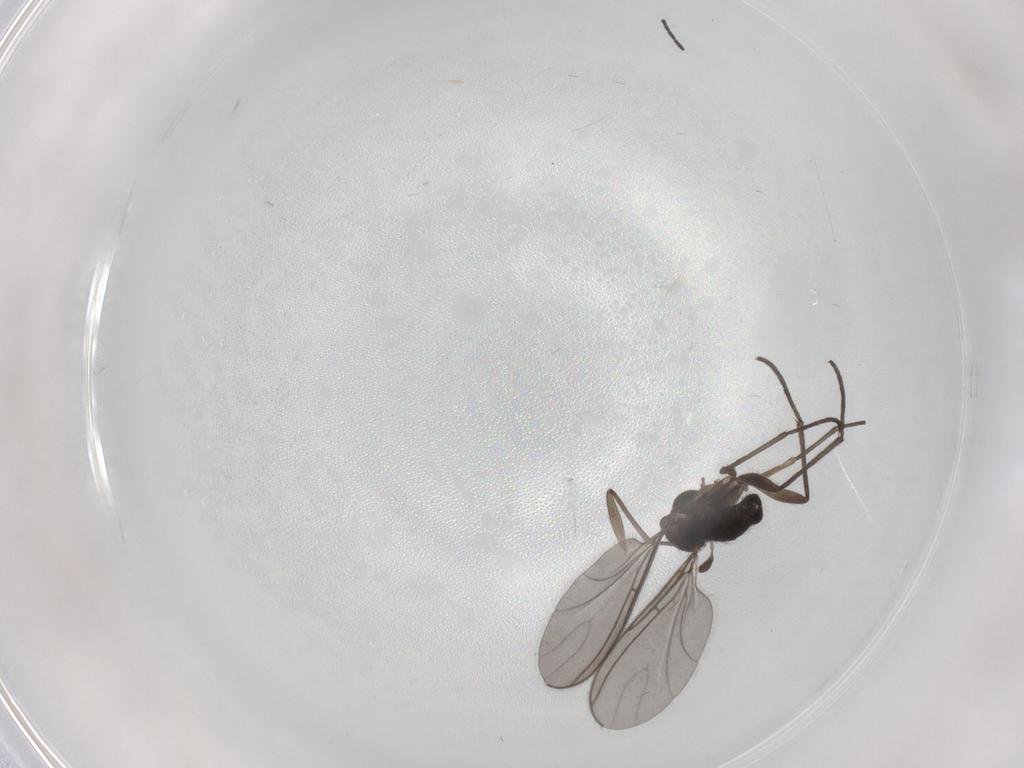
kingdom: Animalia
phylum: Arthropoda
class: Insecta
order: Diptera
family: Sciaridae
